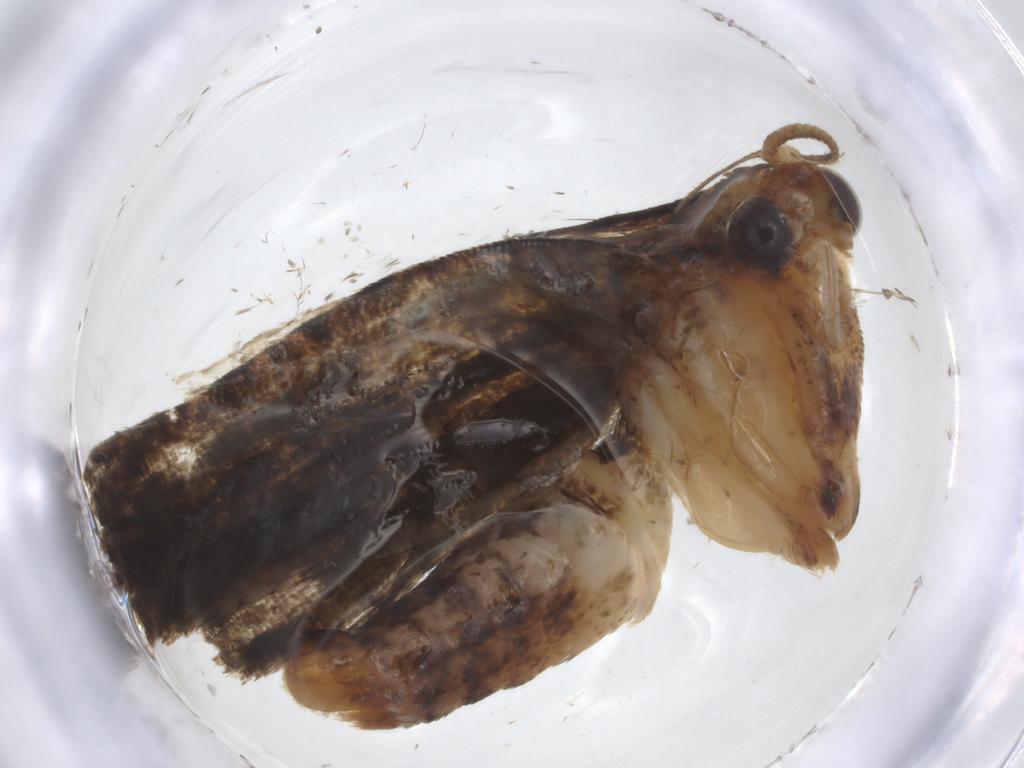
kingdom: Animalia
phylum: Arthropoda
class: Insecta
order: Lepidoptera
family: Tortricidae
